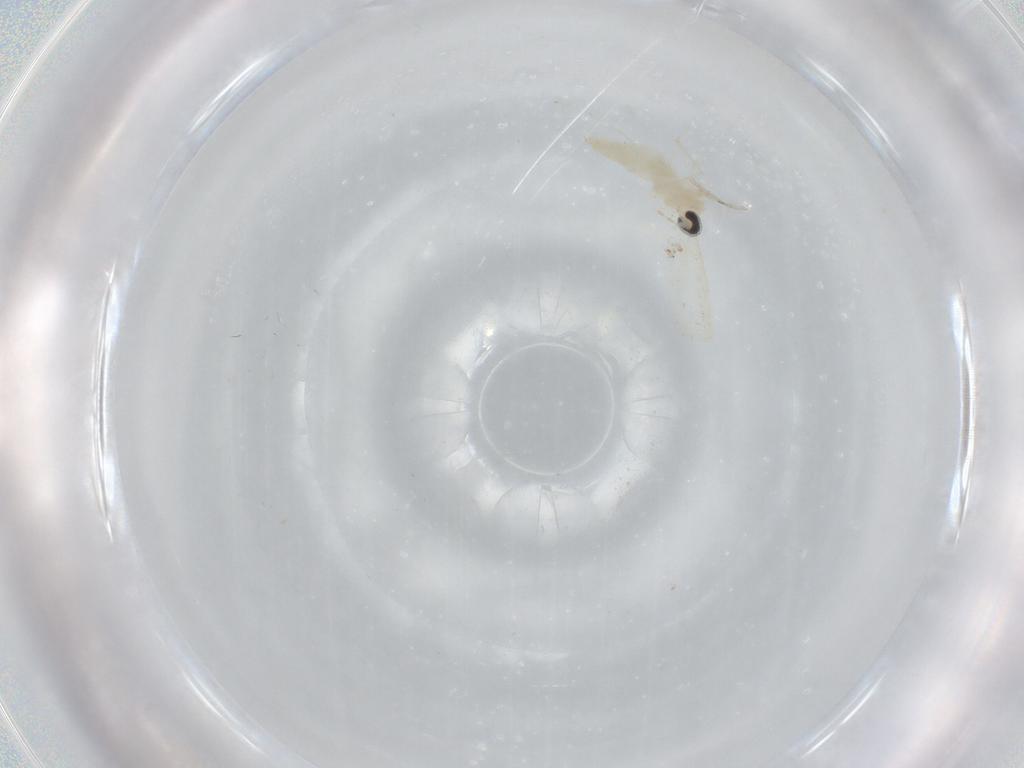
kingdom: Animalia
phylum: Arthropoda
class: Insecta
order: Diptera
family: Chironomidae
